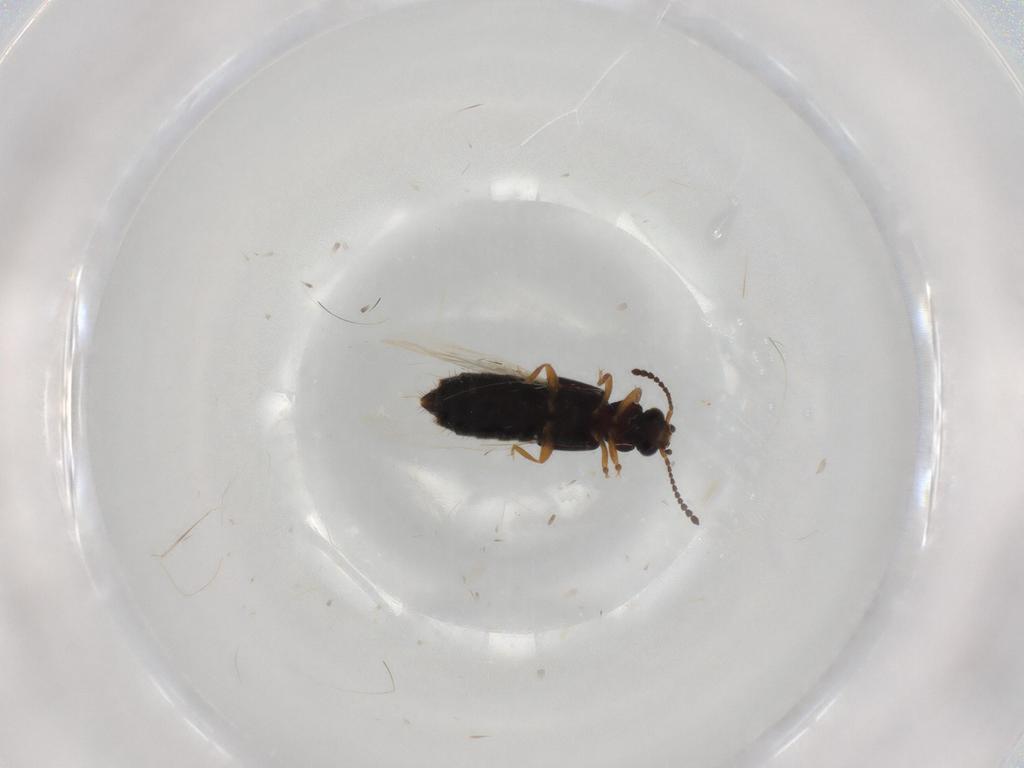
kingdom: Animalia
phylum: Arthropoda
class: Insecta
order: Coleoptera
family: Staphylinidae
